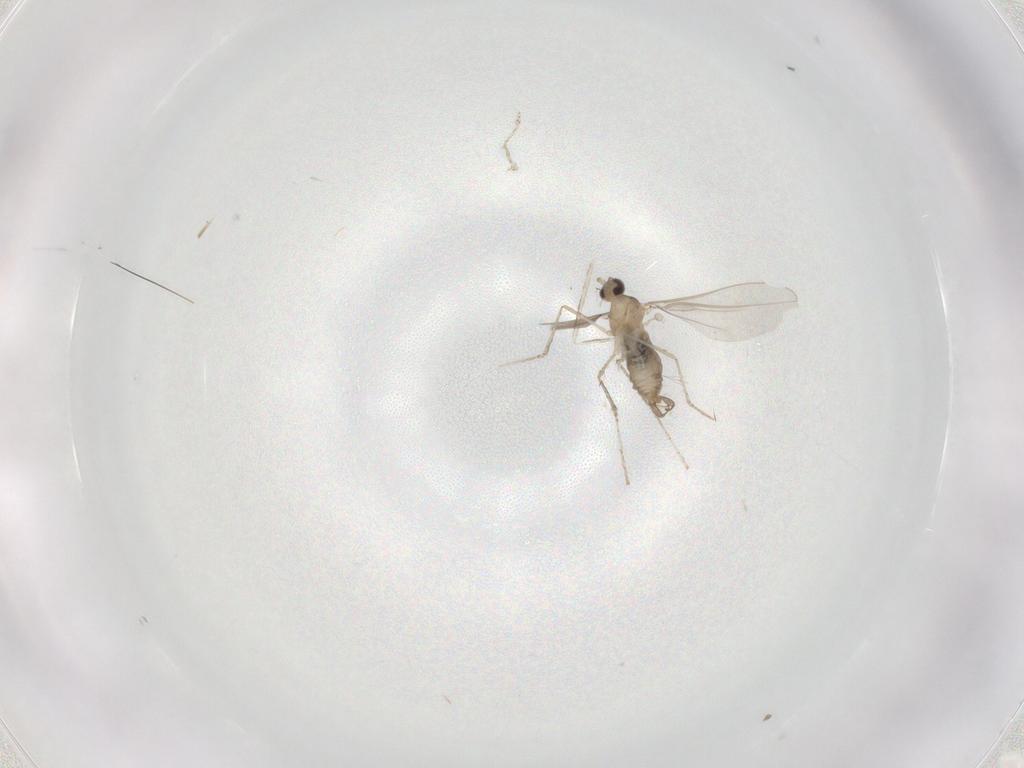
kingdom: Animalia
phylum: Arthropoda
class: Insecta
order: Diptera
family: Cecidomyiidae
